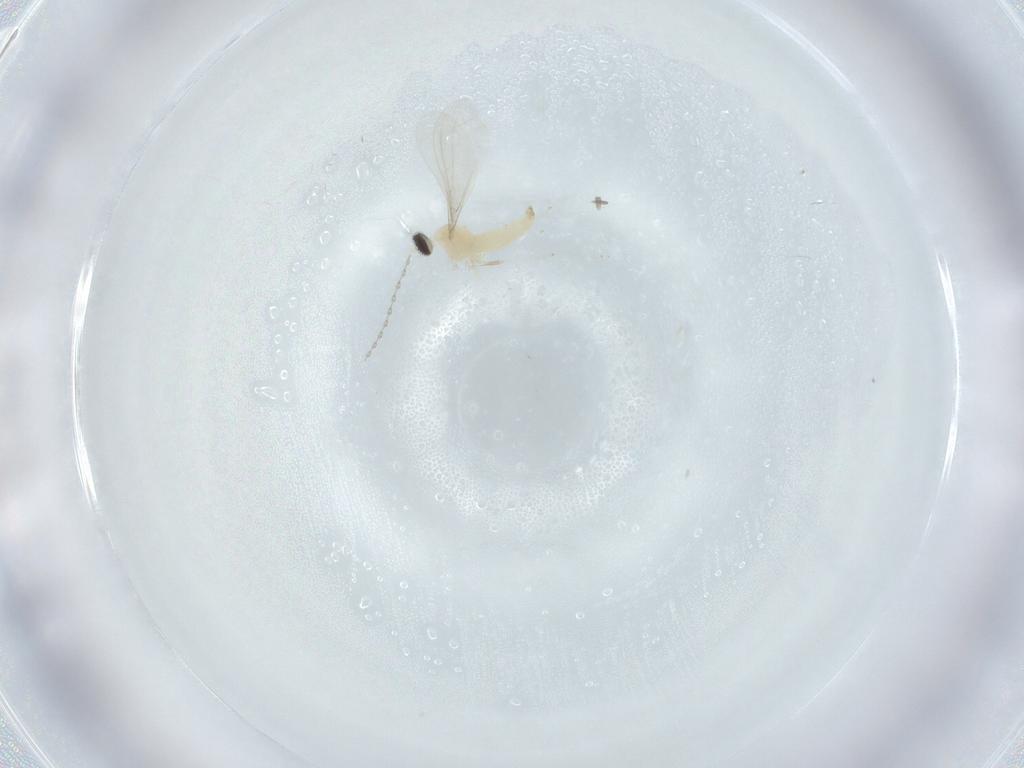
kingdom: Animalia
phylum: Arthropoda
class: Insecta
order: Diptera
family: Cecidomyiidae
